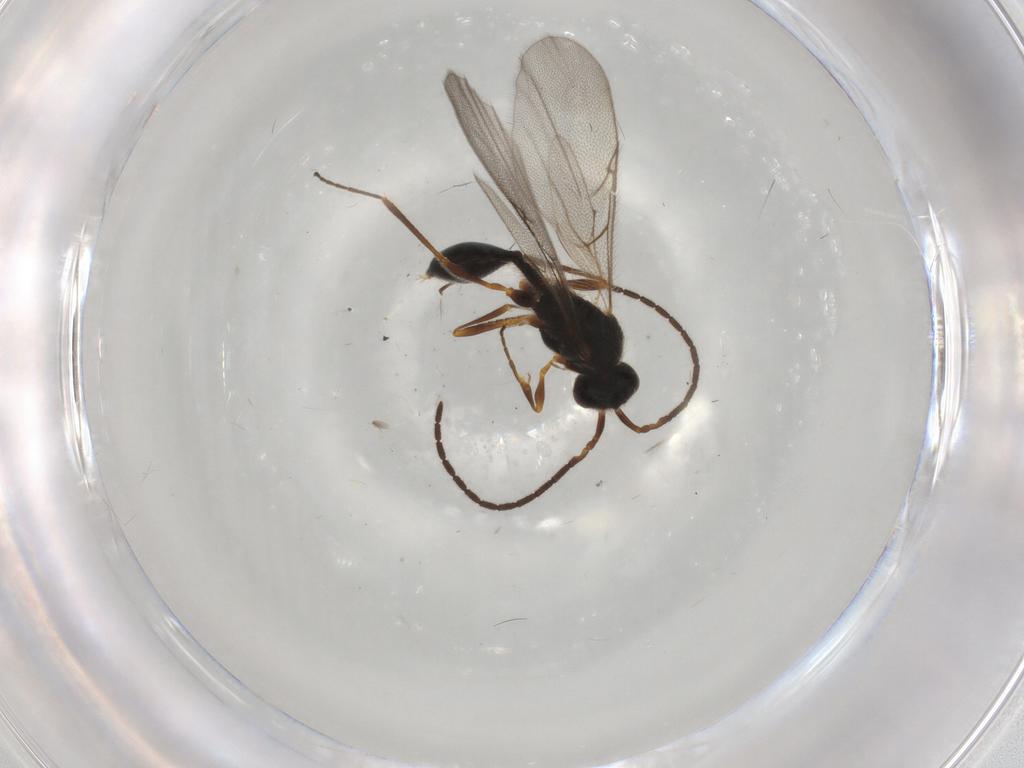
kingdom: Animalia
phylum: Arthropoda
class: Insecta
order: Hymenoptera
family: Diapriidae
